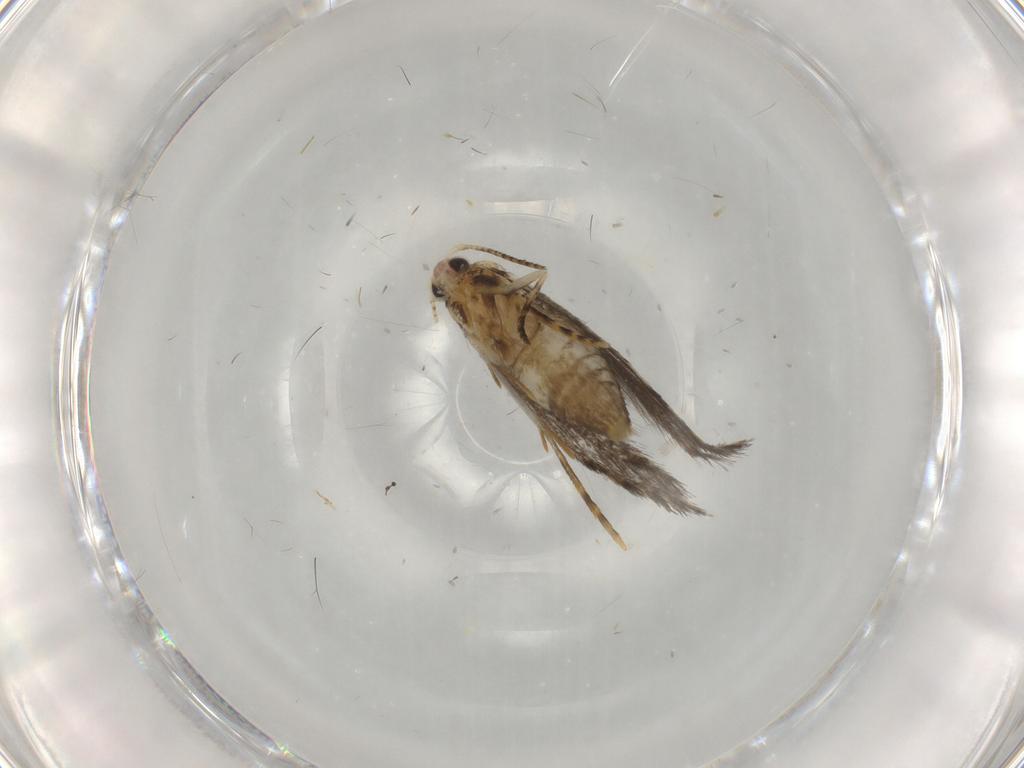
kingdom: Animalia
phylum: Arthropoda
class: Insecta
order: Lepidoptera
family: Tineidae
